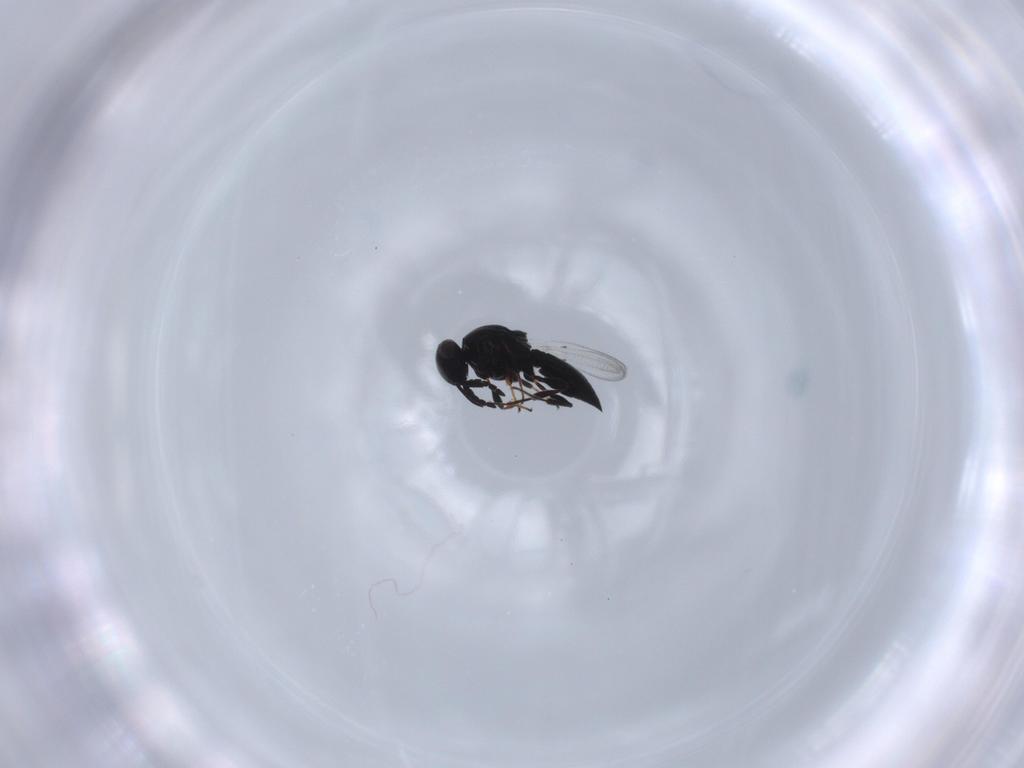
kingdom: Animalia
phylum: Arthropoda
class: Insecta
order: Hymenoptera
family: Platygastridae
